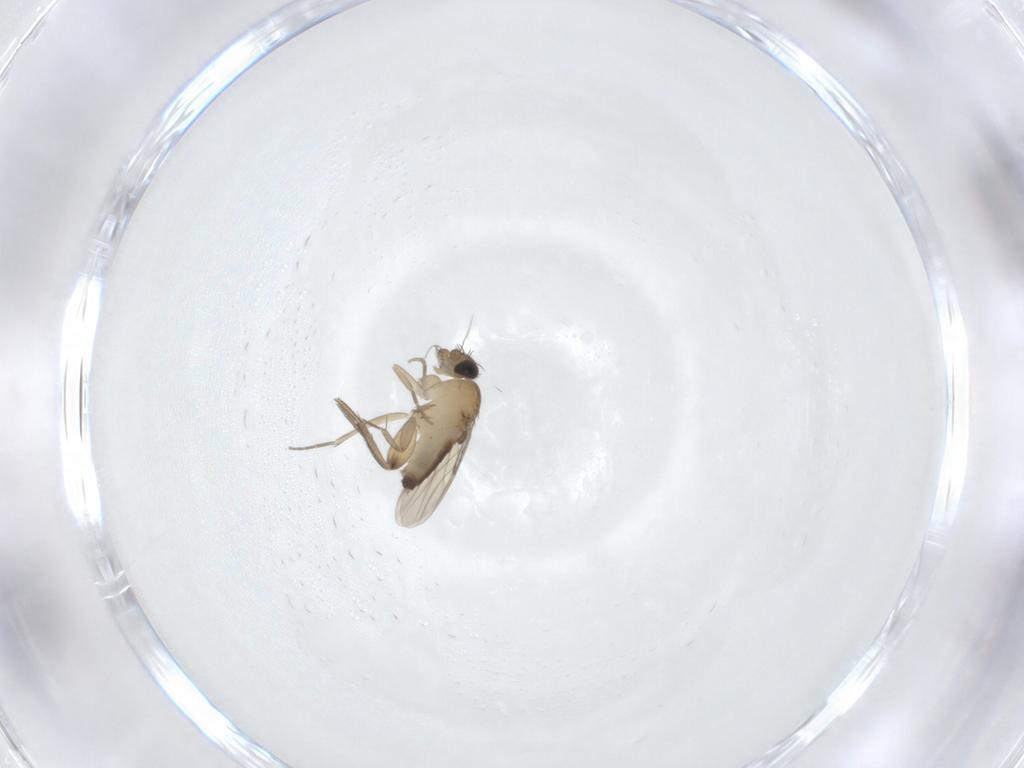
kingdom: Animalia
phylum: Arthropoda
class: Insecta
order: Diptera
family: Phoridae
